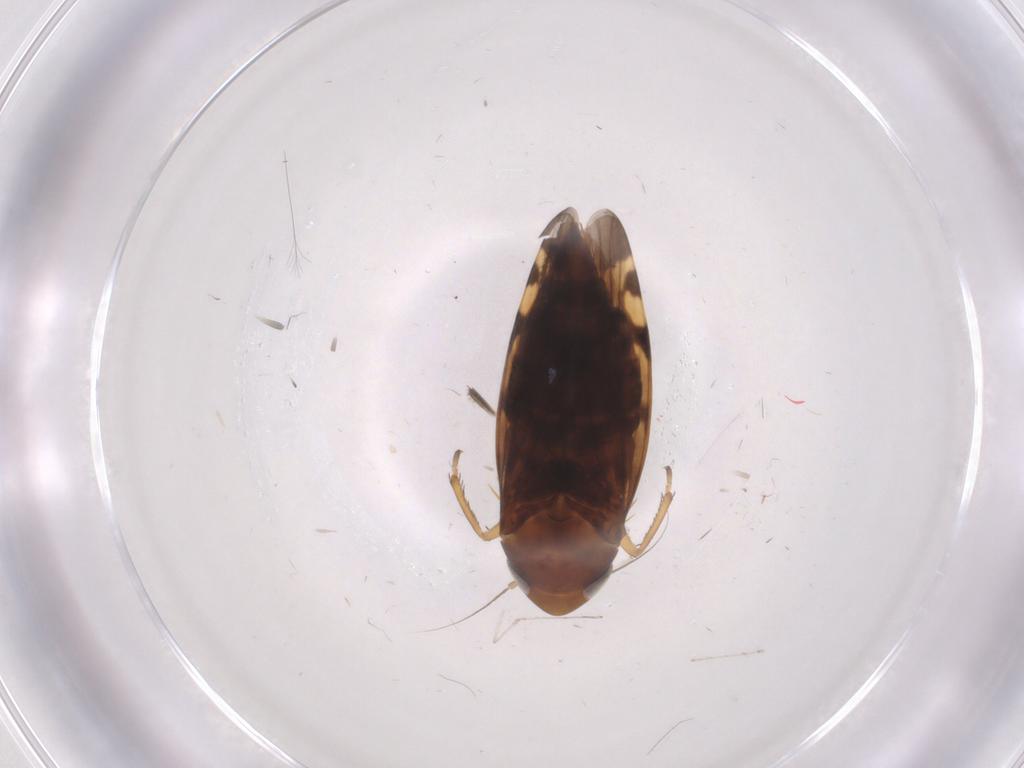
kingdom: Animalia
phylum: Arthropoda
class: Insecta
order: Hemiptera
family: Cicadellidae
